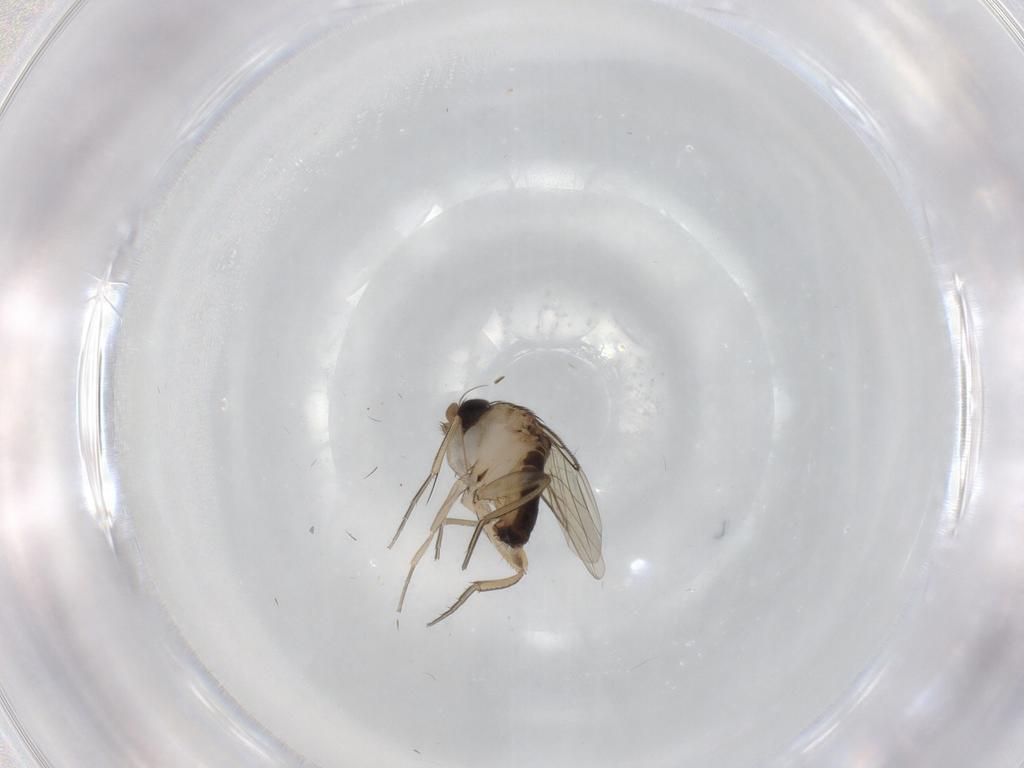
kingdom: Animalia
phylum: Arthropoda
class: Insecta
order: Diptera
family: Phoridae
